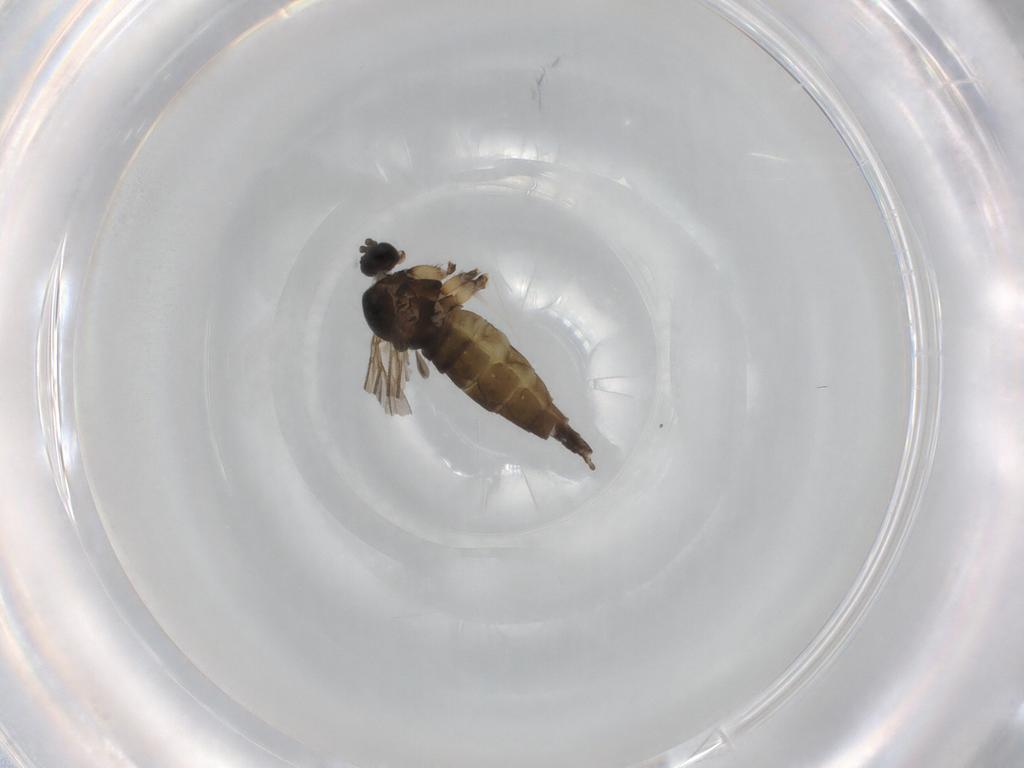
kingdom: Animalia
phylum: Arthropoda
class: Insecta
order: Diptera
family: Sciaridae
